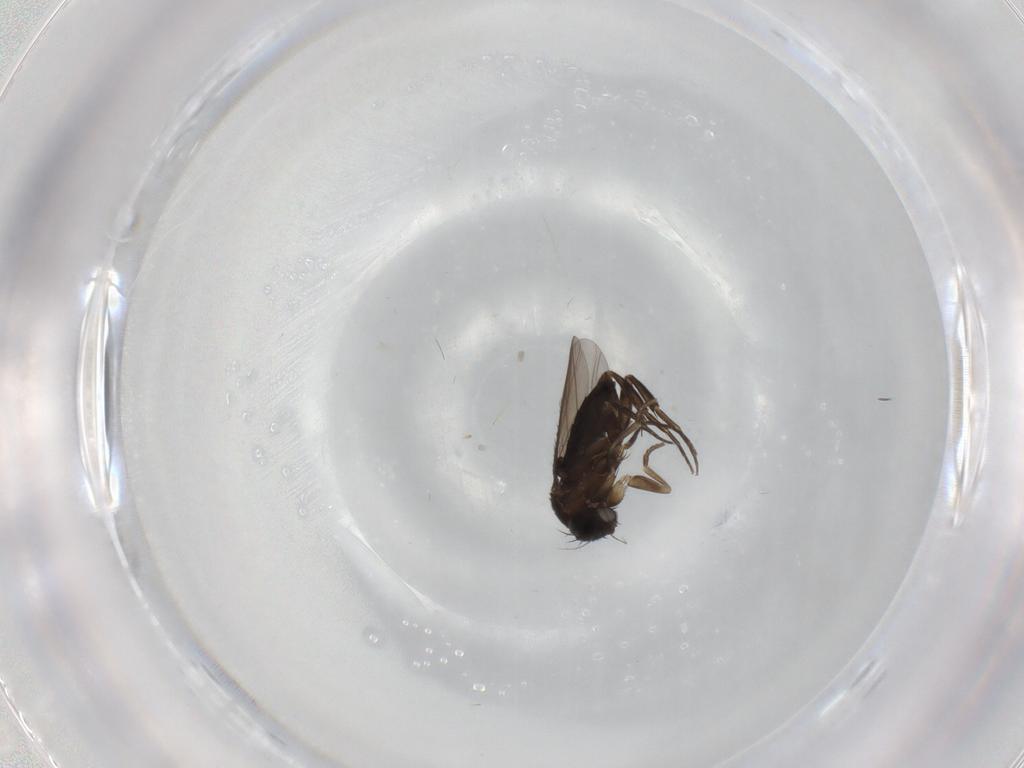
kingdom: Animalia
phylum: Arthropoda
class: Insecta
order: Diptera
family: Phoridae
